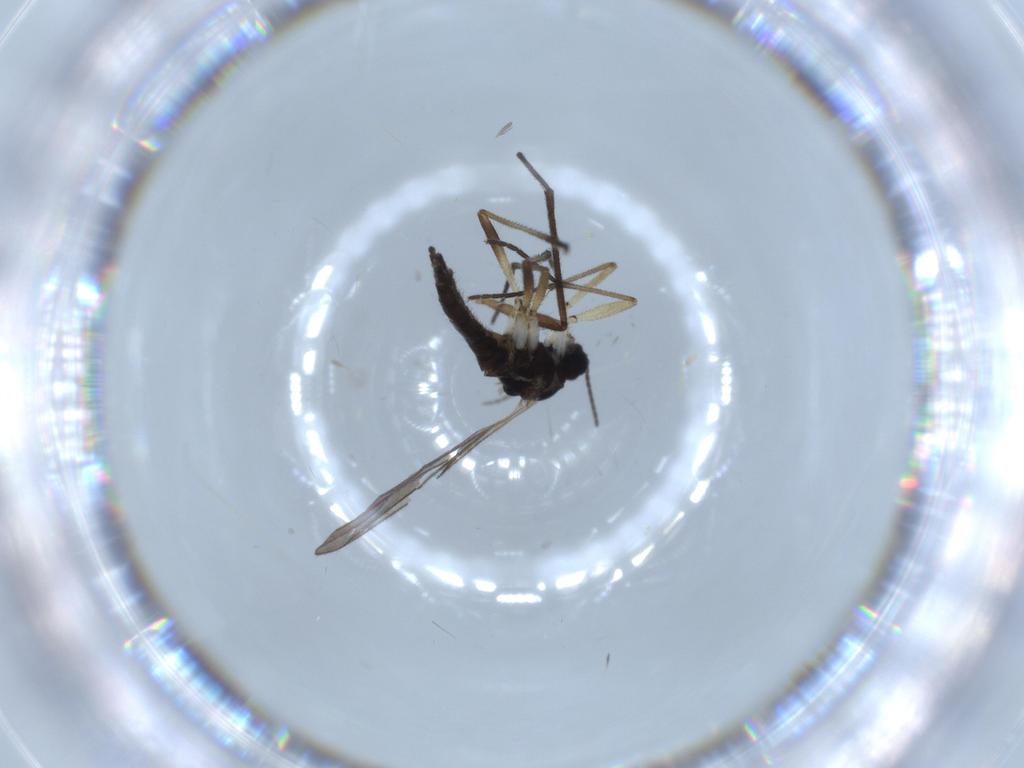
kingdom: Animalia
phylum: Arthropoda
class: Insecta
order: Diptera
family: Sciaridae
